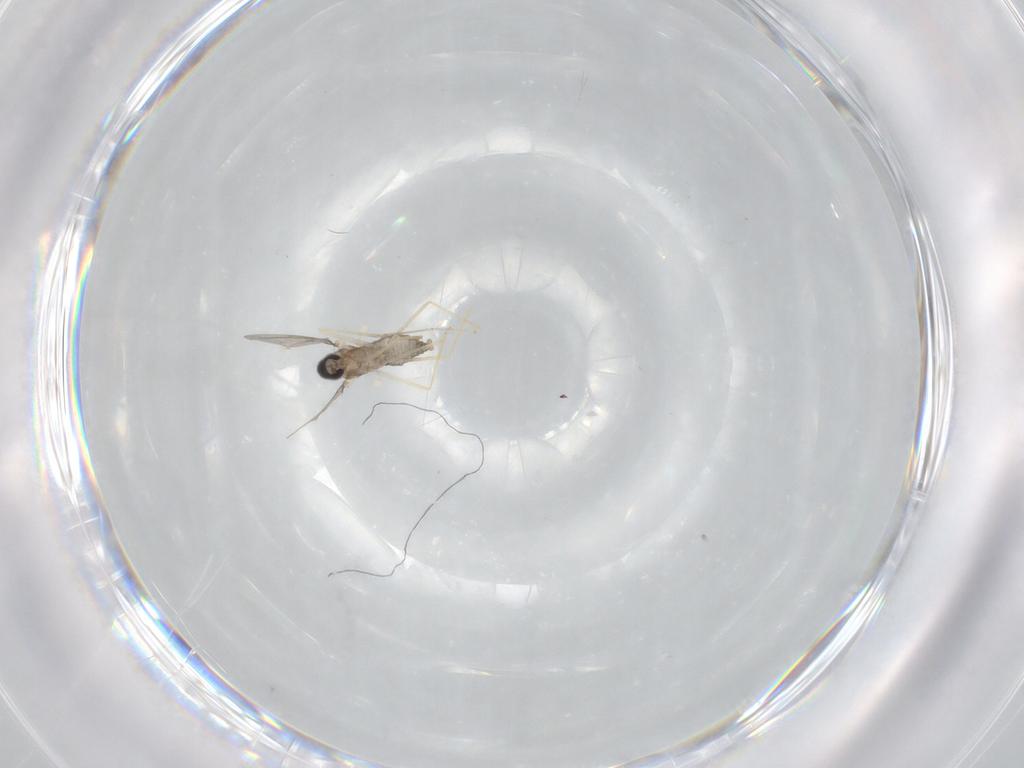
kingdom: Animalia
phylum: Arthropoda
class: Insecta
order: Diptera
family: Cecidomyiidae
